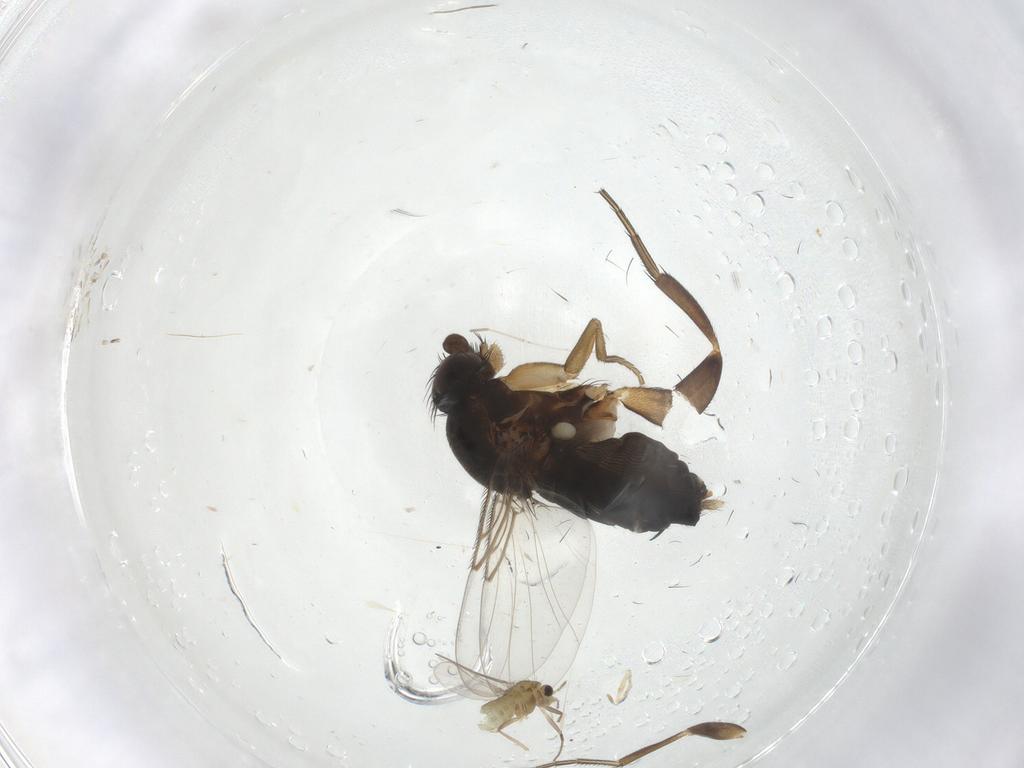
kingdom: Animalia
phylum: Arthropoda
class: Insecta
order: Diptera
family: Phoridae
